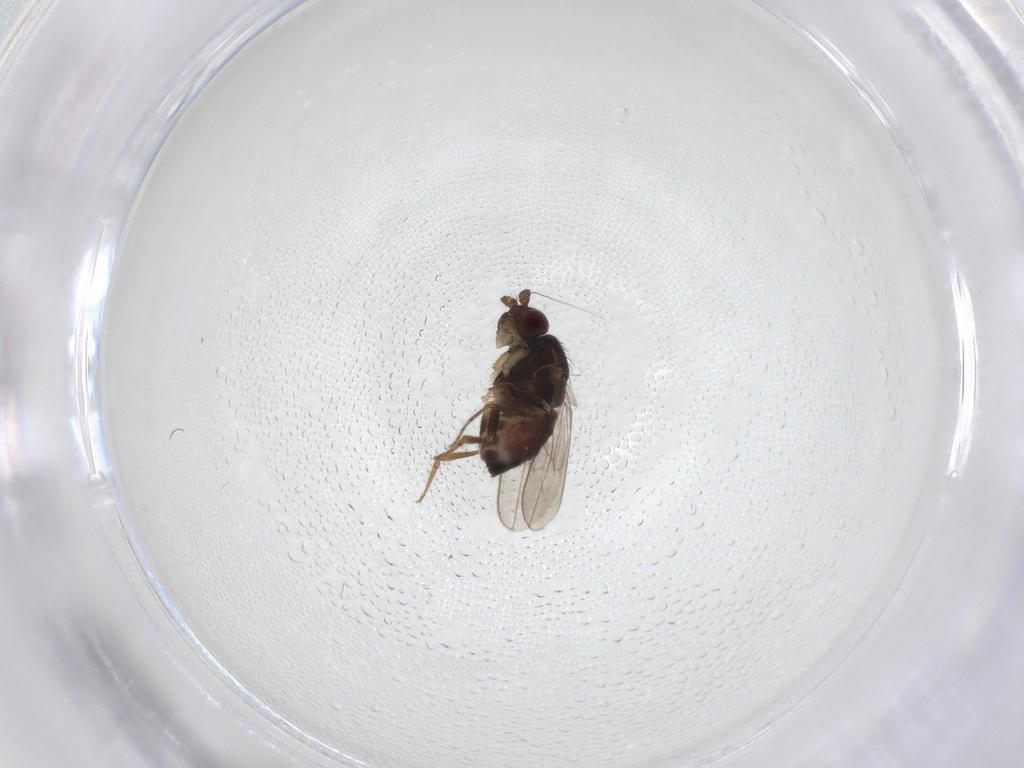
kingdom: Animalia
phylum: Arthropoda
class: Insecta
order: Diptera
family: Sphaeroceridae
